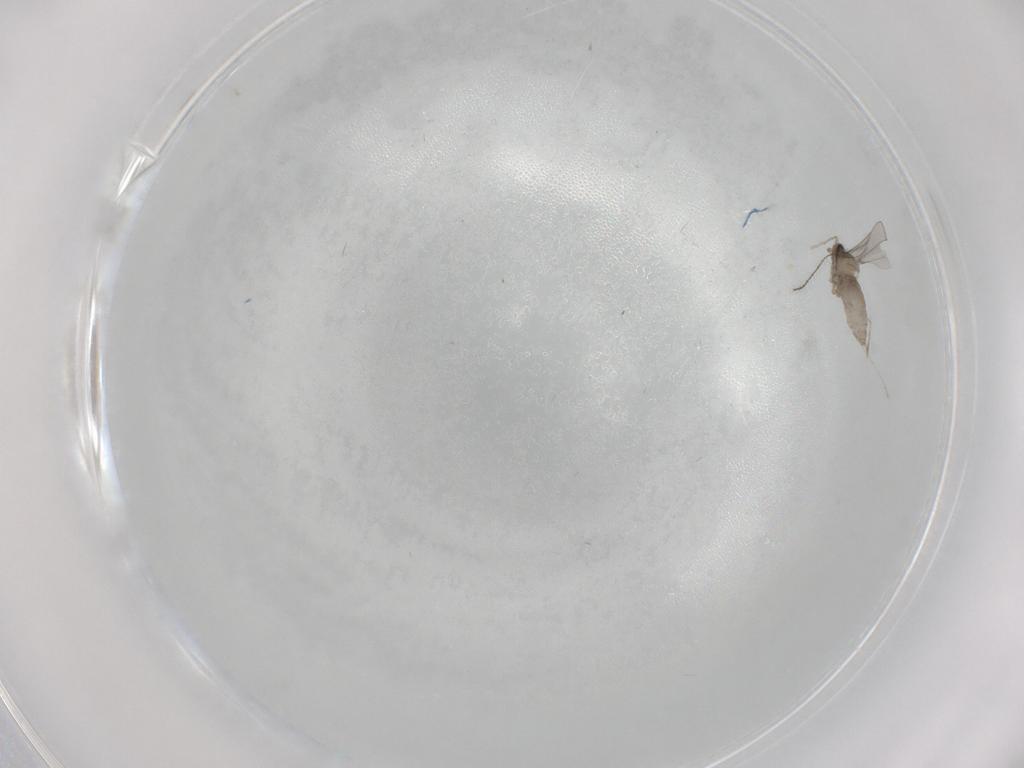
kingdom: Animalia
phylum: Arthropoda
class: Insecta
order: Diptera
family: Ceratopogonidae
